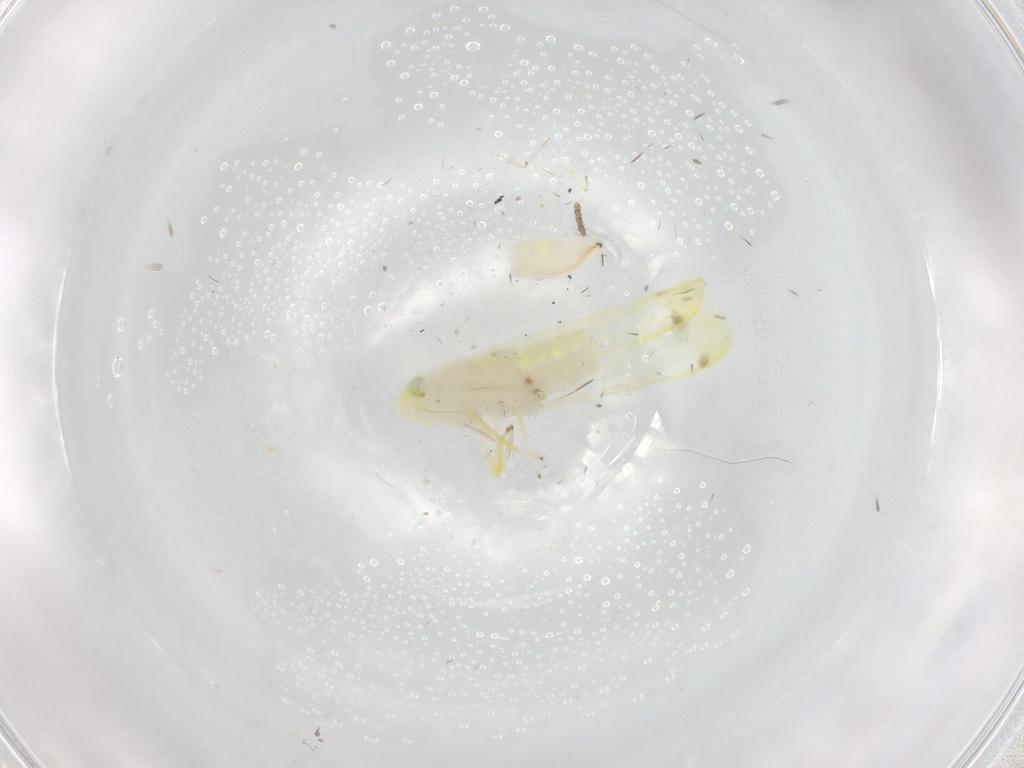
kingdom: Animalia
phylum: Arthropoda
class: Insecta
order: Hemiptera
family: Cicadellidae
